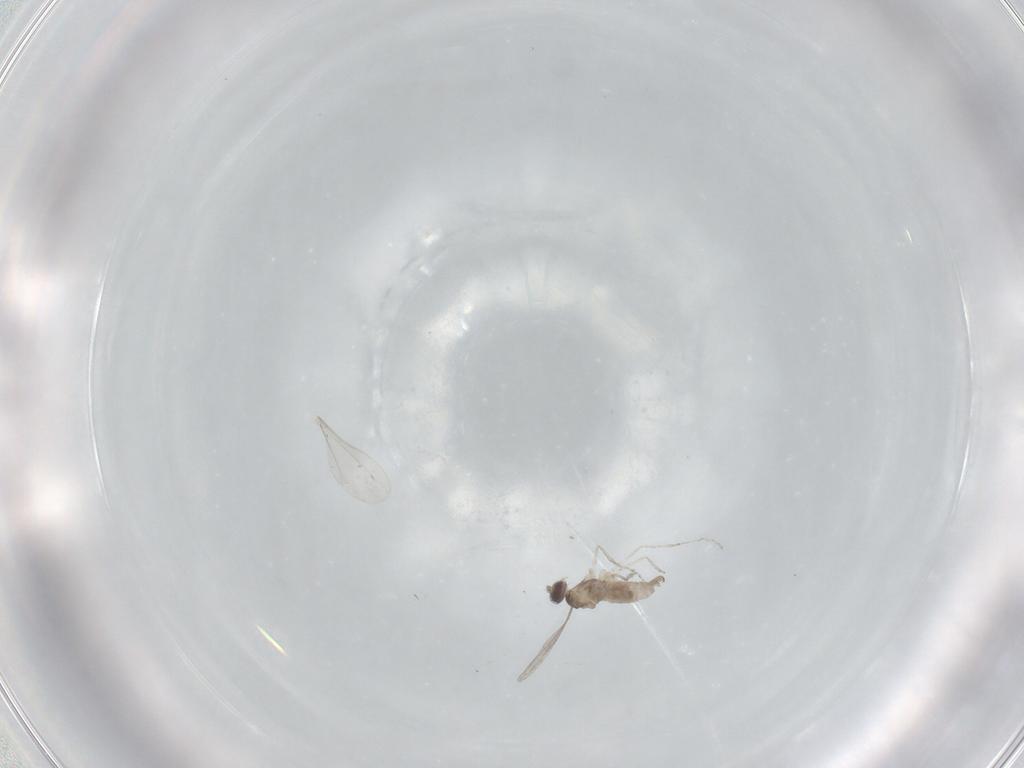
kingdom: Animalia
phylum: Arthropoda
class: Insecta
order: Diptera
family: Cecidomyiidae
